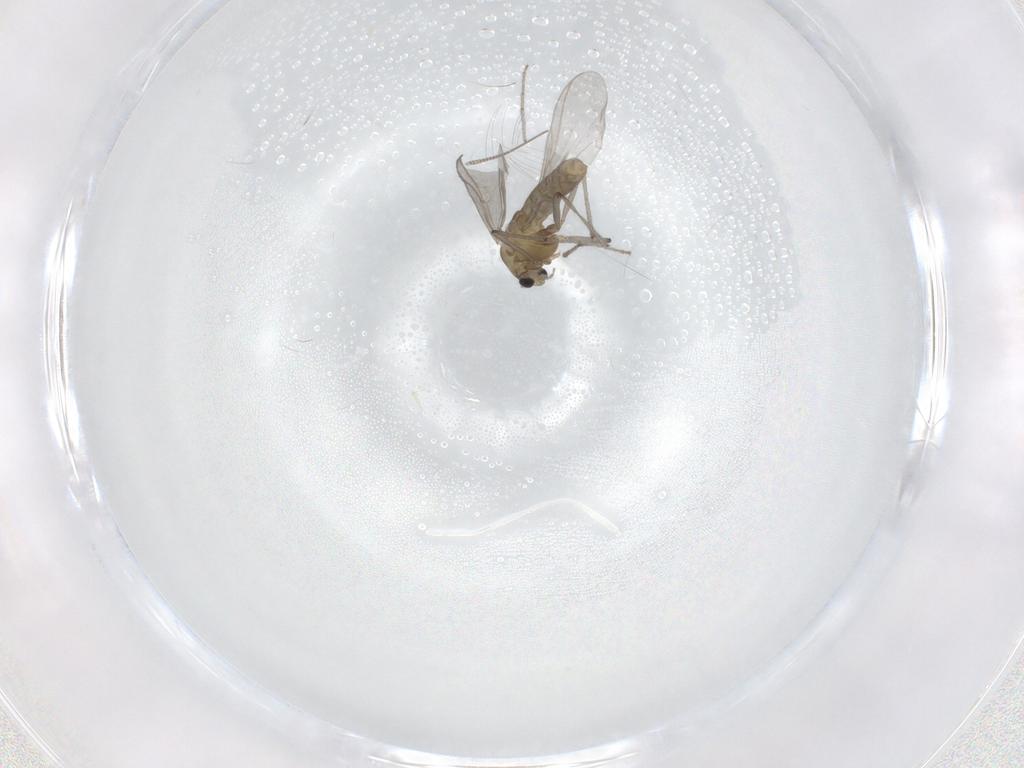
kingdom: Animalia
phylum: Arthropoda
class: Insecta
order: Diptera
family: Chironomidae
